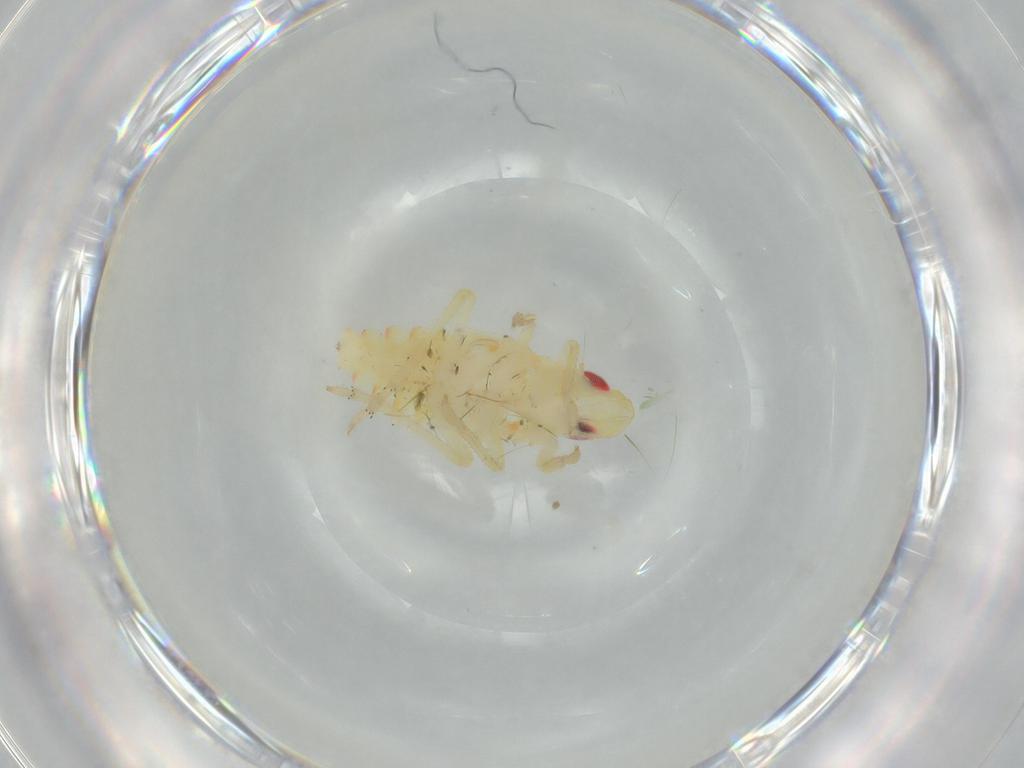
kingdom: Animalia
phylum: Arthropoda
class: Insecta
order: Hemiptera
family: Tropiduchidae
